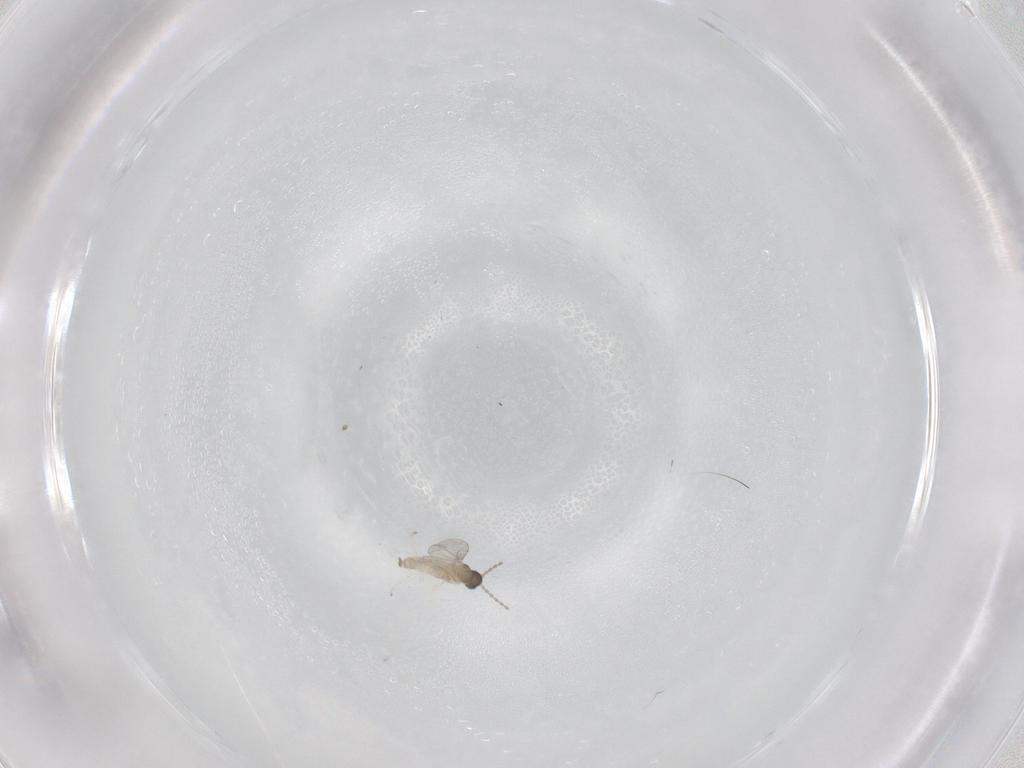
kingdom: Animalia
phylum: Arthropoda
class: Insecta
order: Diptera
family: Cecidomyiidae
